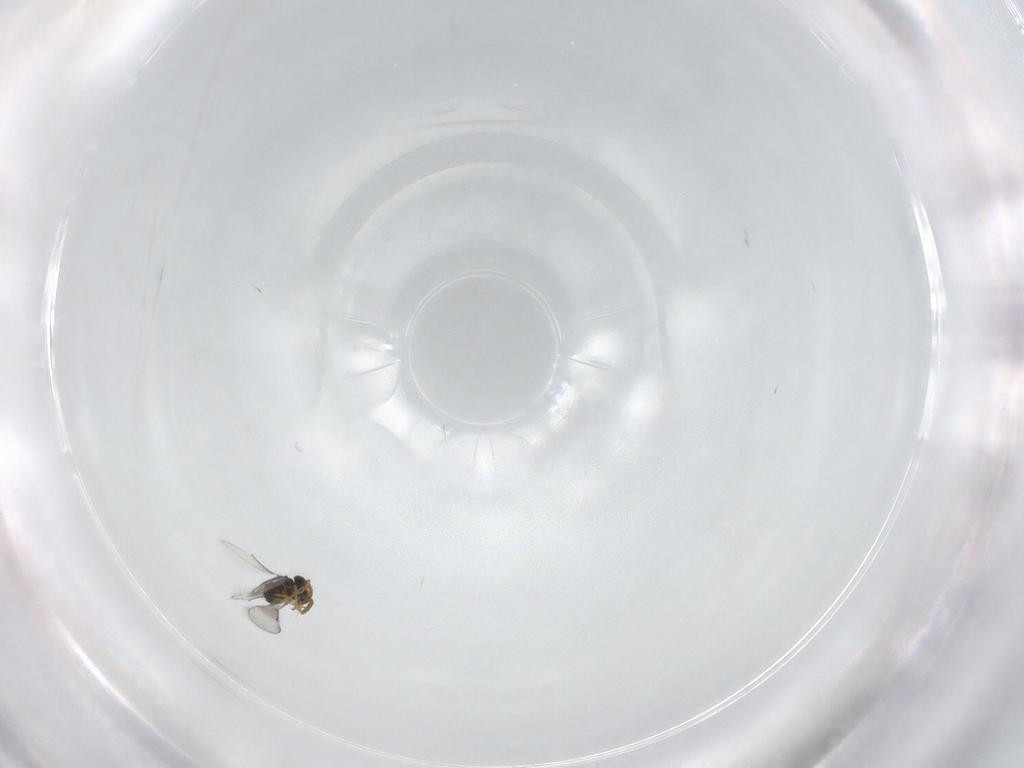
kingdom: Animalia
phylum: Arthropoda
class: Insecta
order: Hymenoptera
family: Aphelinidae
